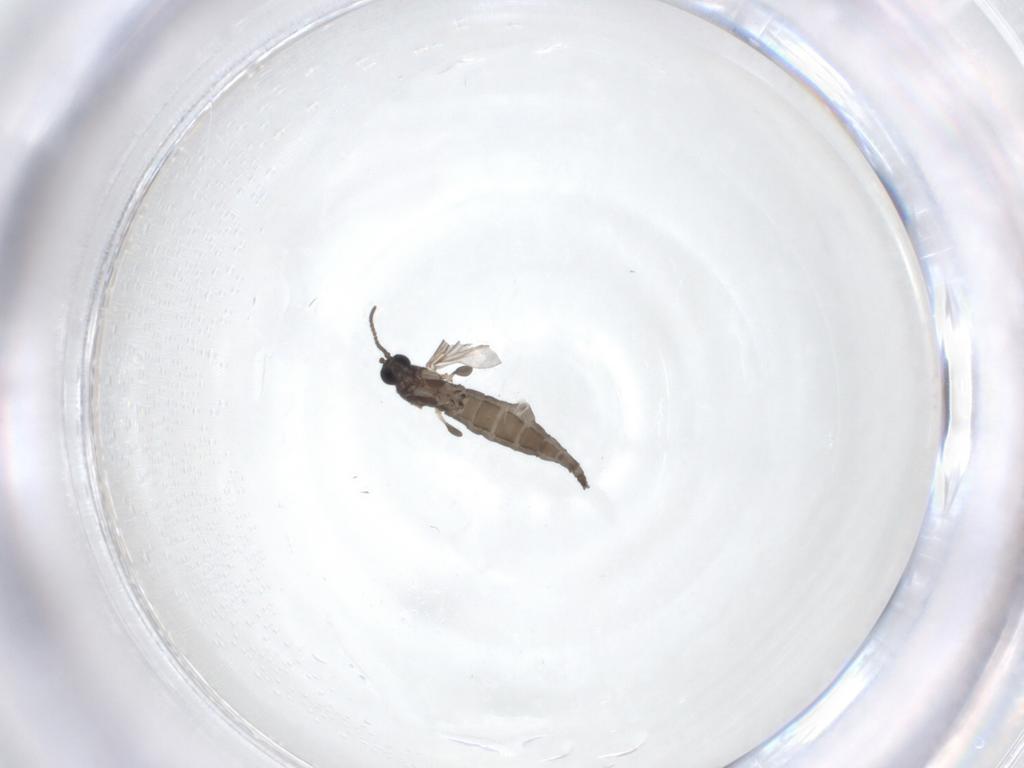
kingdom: Animalia
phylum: Arthropoda
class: Insecta
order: Diptera
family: Sciaridae
